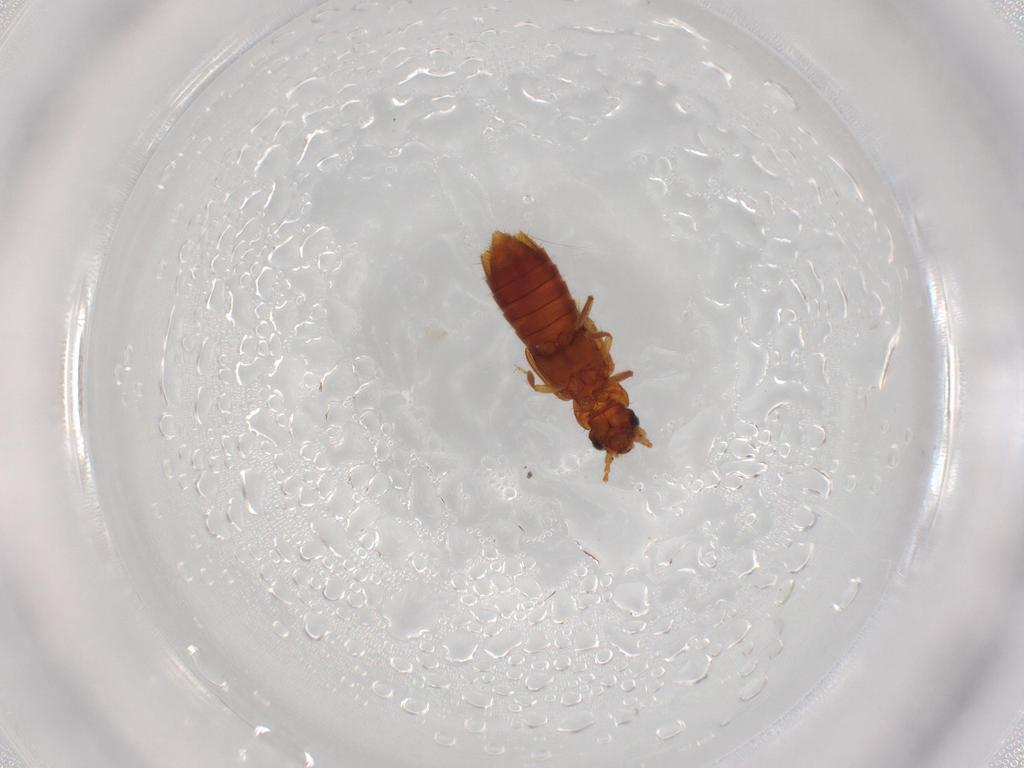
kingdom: Animalia
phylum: Arthropoda
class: Insecta
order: Coleoptera
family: Staphylinidae
